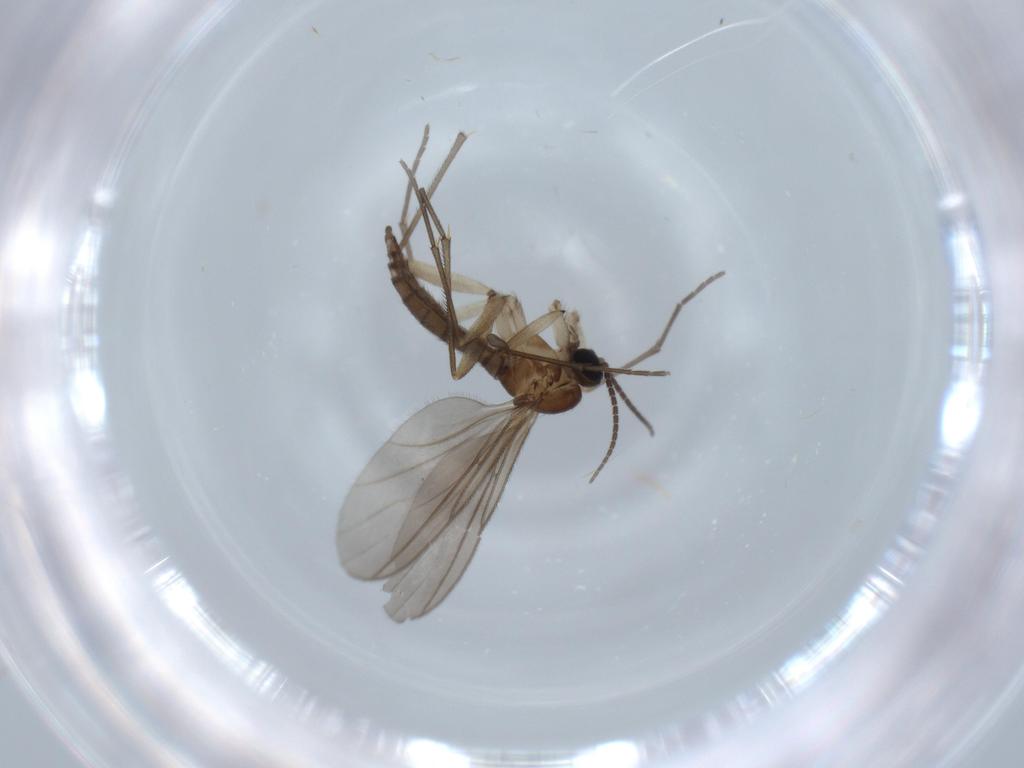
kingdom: Animalia
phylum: Arthropoda
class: Insecta
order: Diptera
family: Sciaridae
